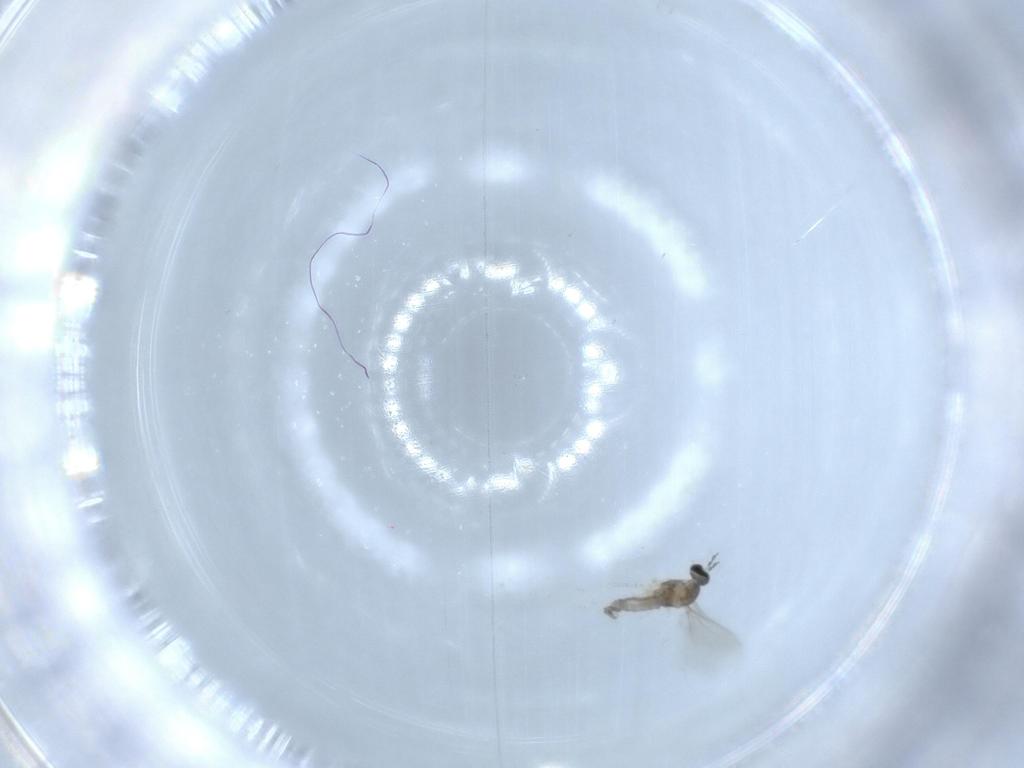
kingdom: Animalia
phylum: Arthropoda
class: Insecta
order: Diptera
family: Cecidomyiidae
